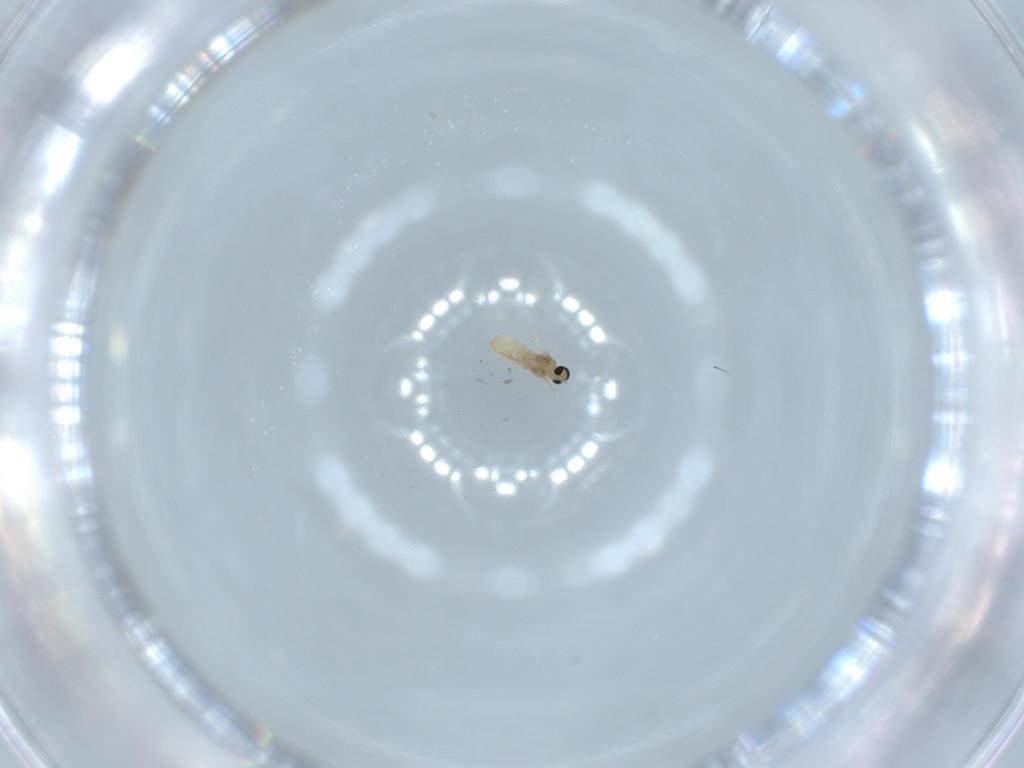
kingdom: Animalia
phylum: Arthropoda
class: Insecta
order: Diptera
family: Cecidomyiidae
